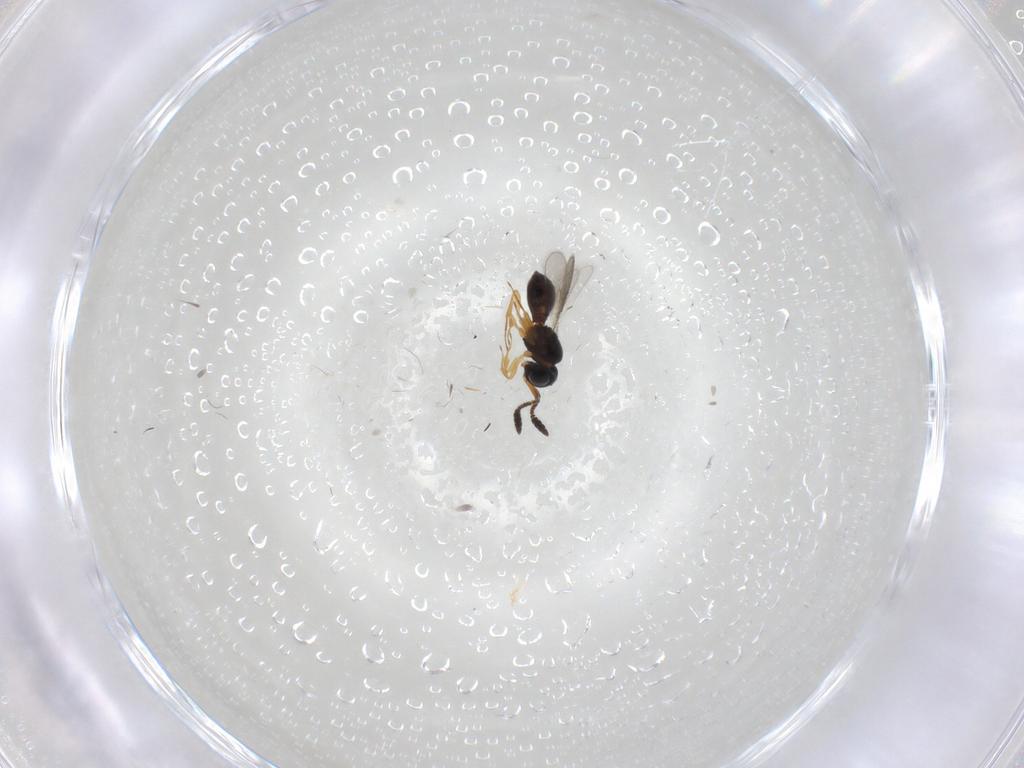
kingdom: Animalia
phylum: Arthropoda
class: Insecta
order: Hymenoptera
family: Scelionidae
